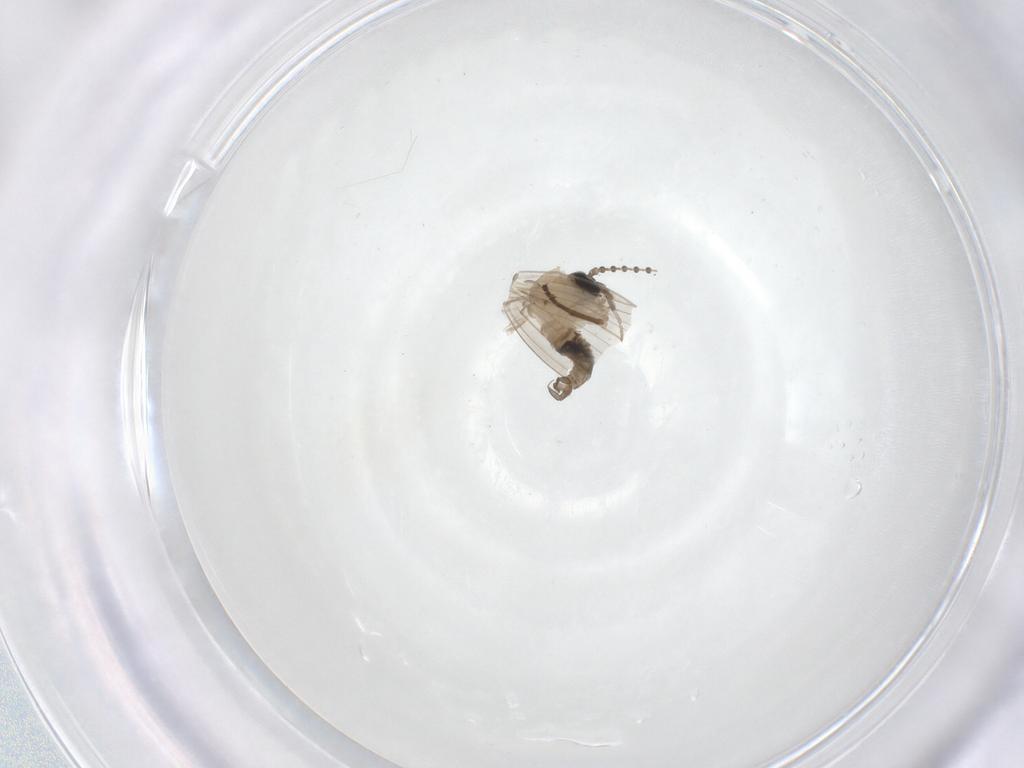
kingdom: Animalia
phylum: Arthropoda
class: Insecta
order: Diptera
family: Psychodidae
